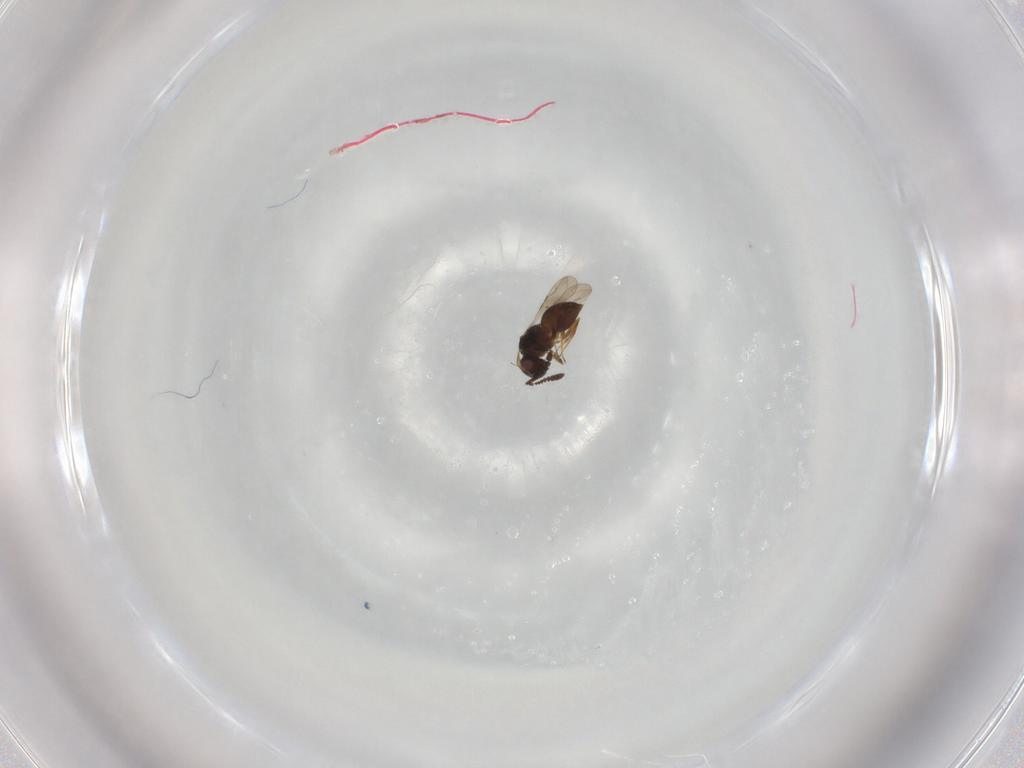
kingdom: Animalia
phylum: Arthropoda
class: Insecta
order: Hymenoptera
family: Ceraphronidae
